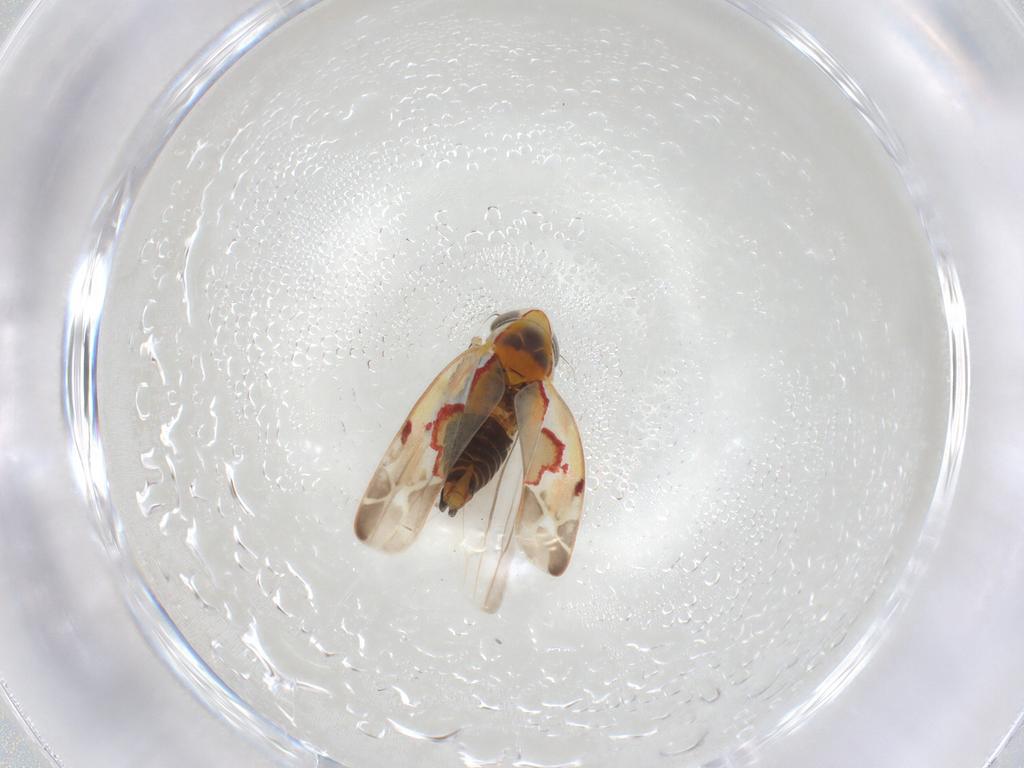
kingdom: Animalia
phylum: Arthropoda
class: Insecta
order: Hemiptera
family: Cicadellidae
